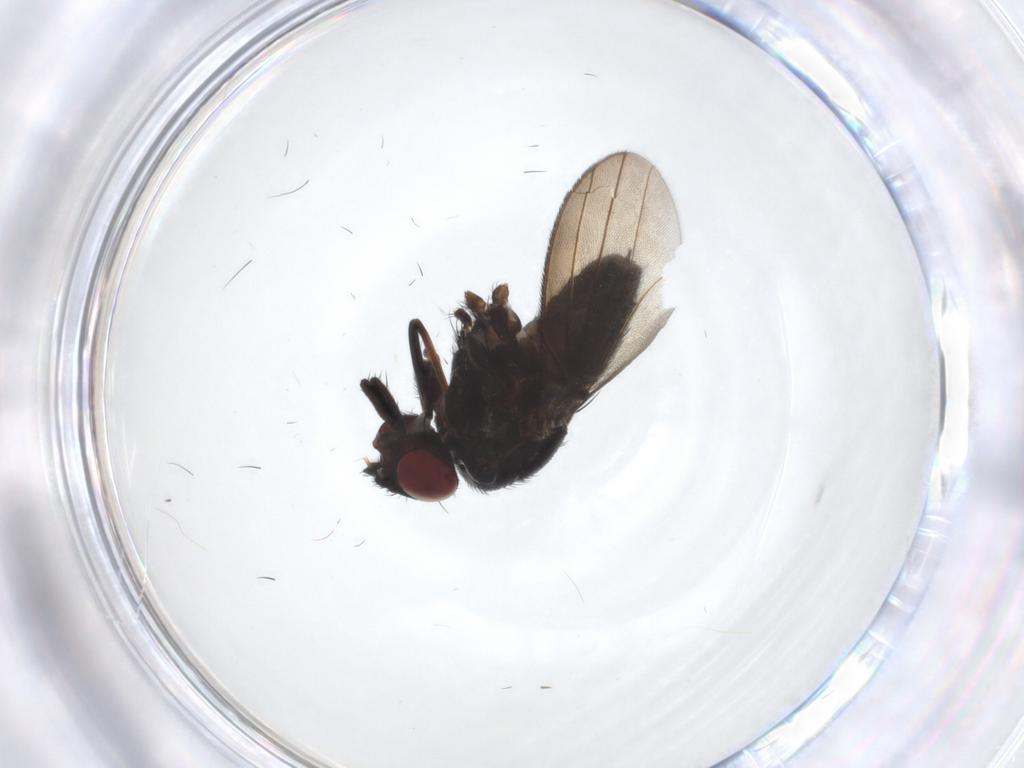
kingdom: Animalia
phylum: Arthropoda
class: Insecta
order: Diptera
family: Milichiidae
